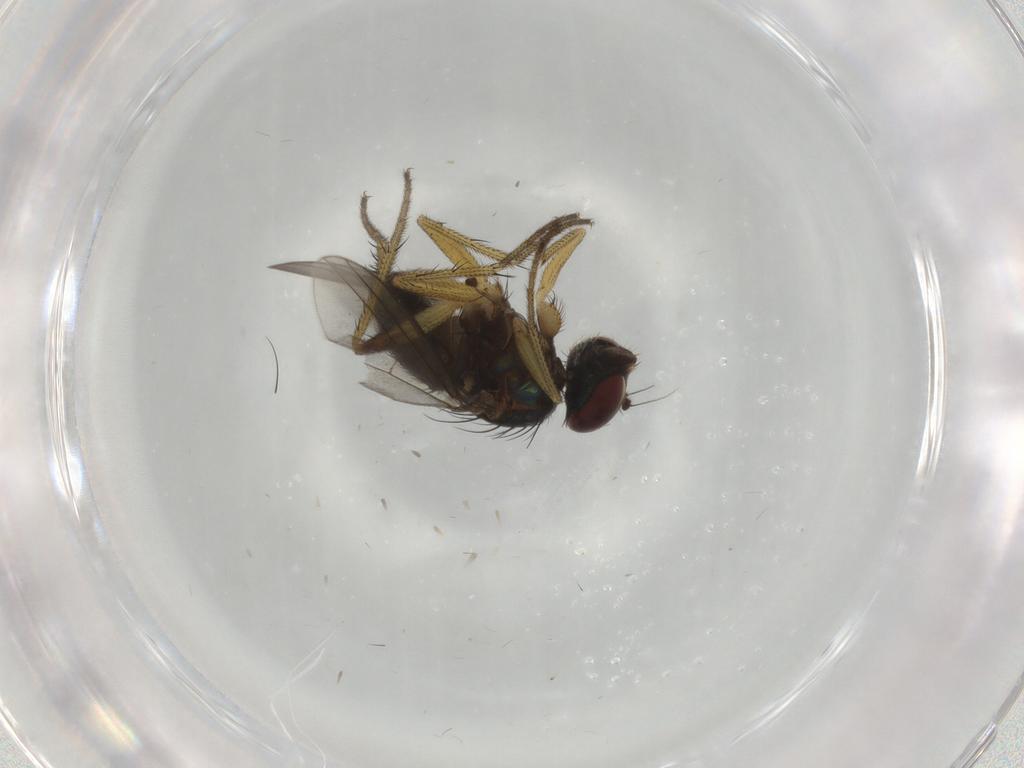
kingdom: Animalia
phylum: Arthropoda
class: Insecta
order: Diptera
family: Dolichopodidae
